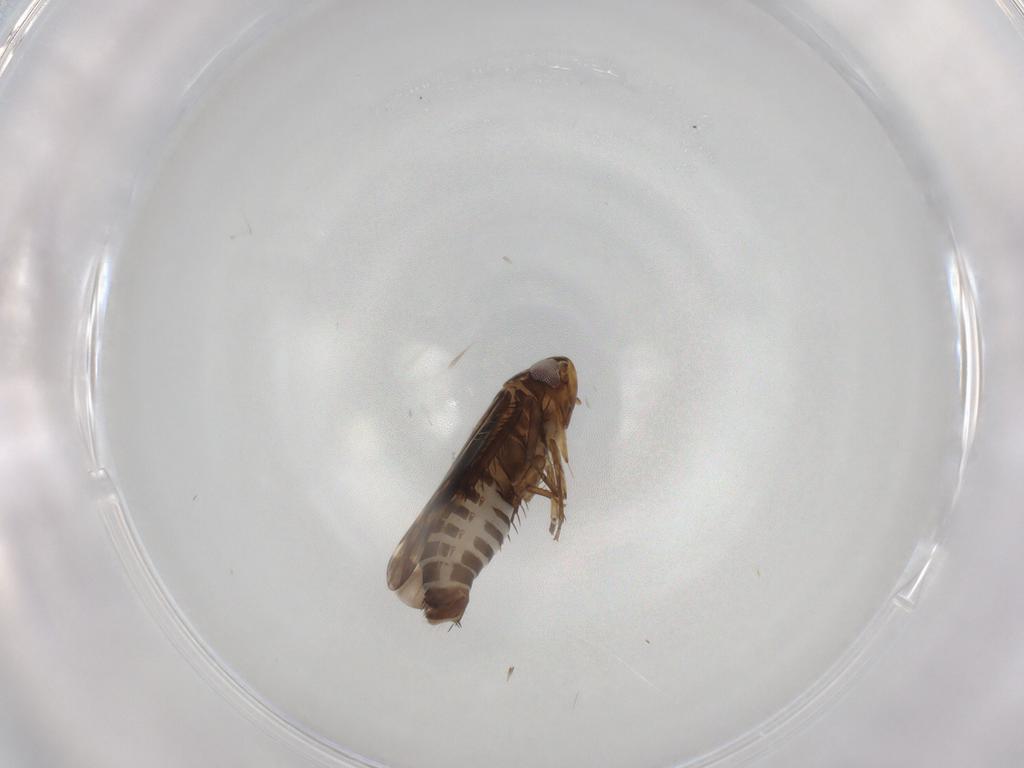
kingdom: Animalia
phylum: Arthropoda
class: Insecta
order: Hemiptera
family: Cicadellidae
